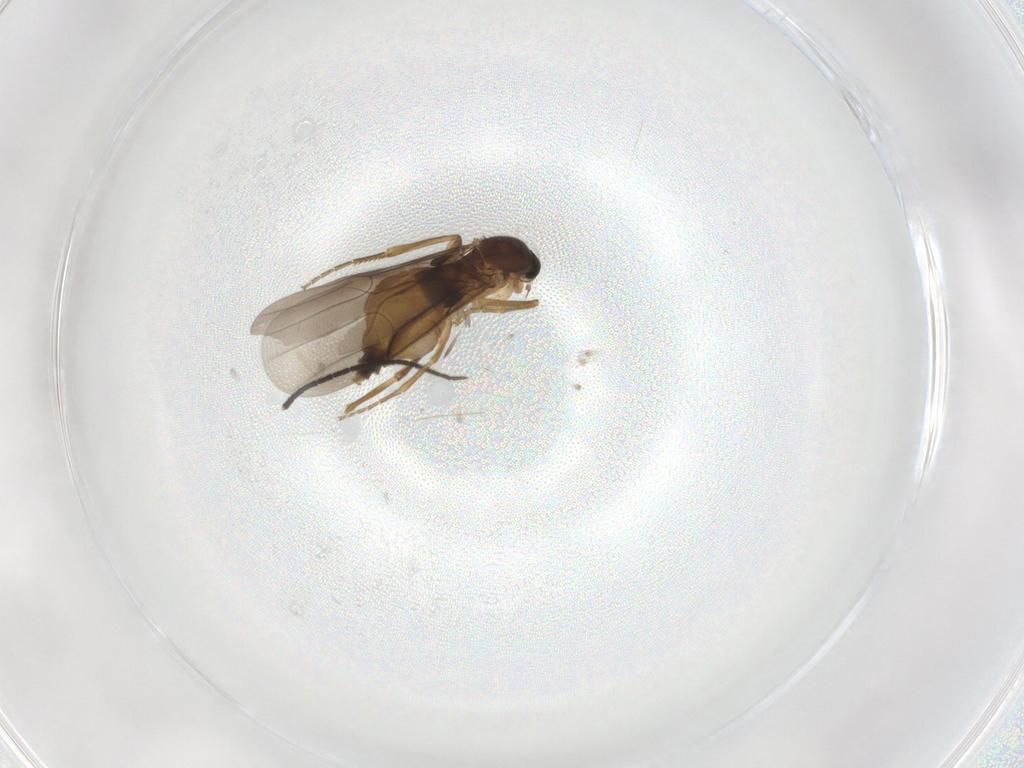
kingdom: Animalia
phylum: Arthropoda
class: Insecta
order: Diptera
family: Sciaridae
